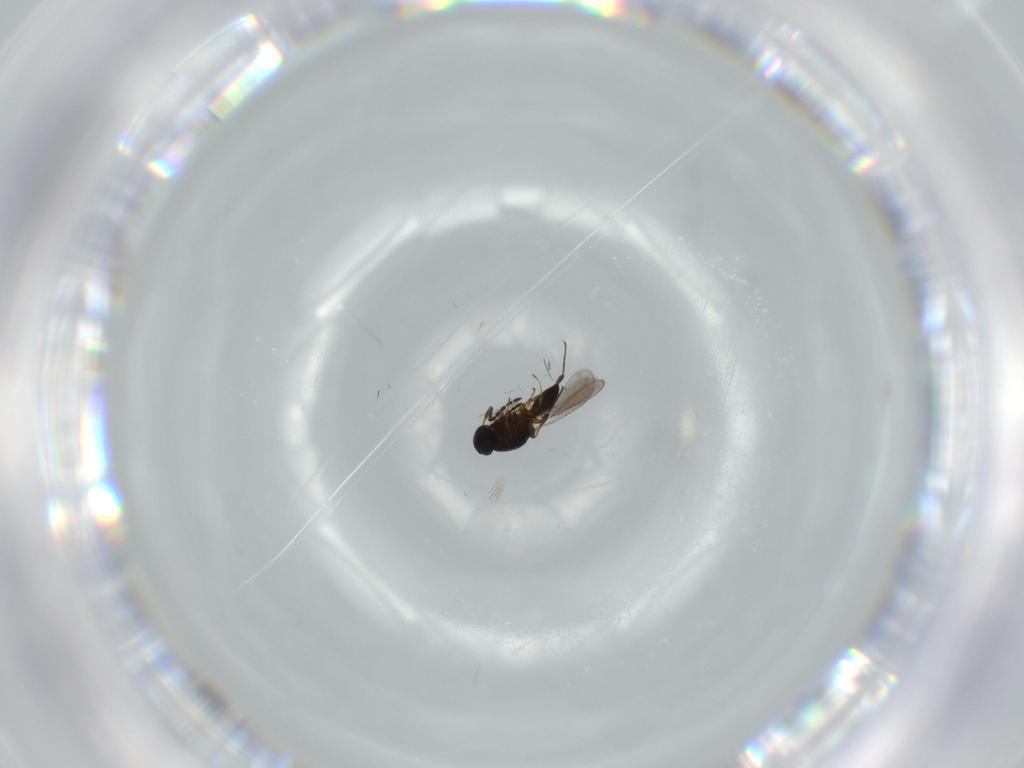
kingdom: Animalia
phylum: Arthropoda
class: Insecta
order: Hymenoptera
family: Platygastridae
